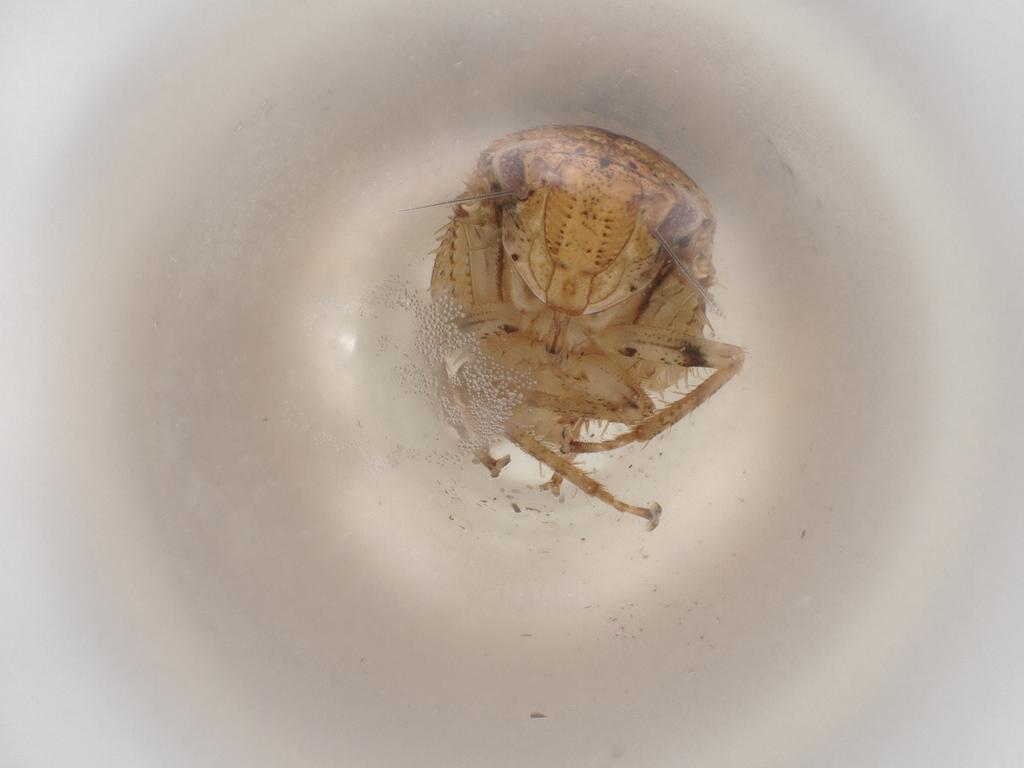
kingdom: Animalia
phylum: Arthropoda
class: Insecta
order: Hemiptera
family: Cicadellidae
